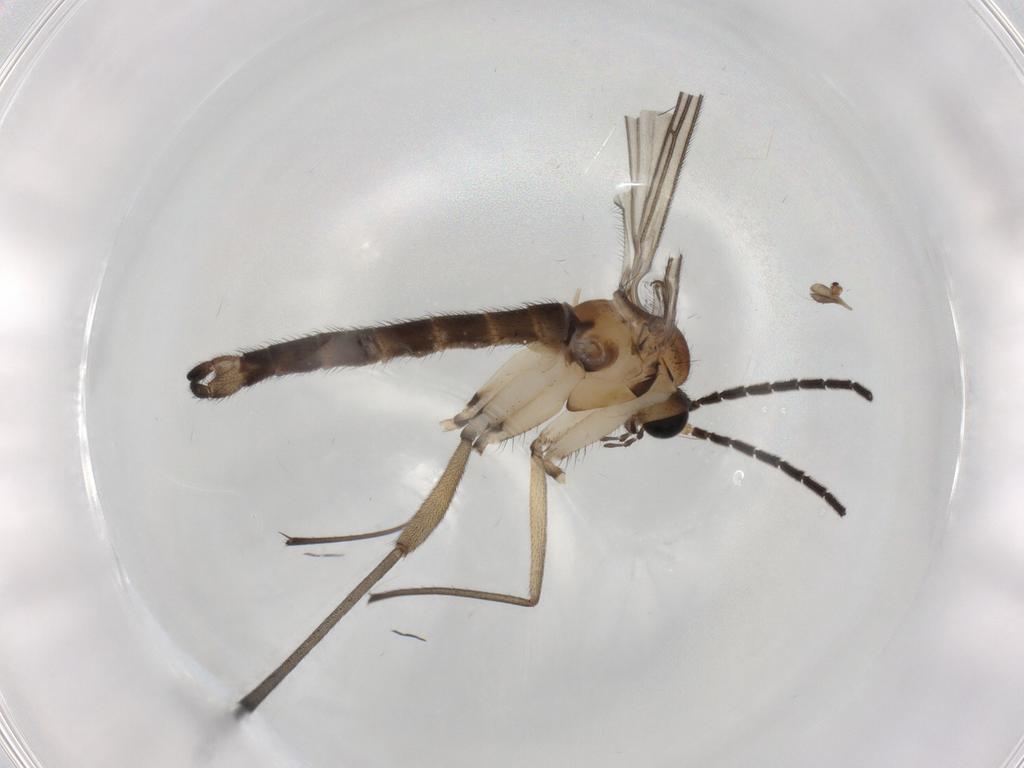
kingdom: Animalia
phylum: Arthropoda
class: Insecta
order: Diptera
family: Sciaridae
